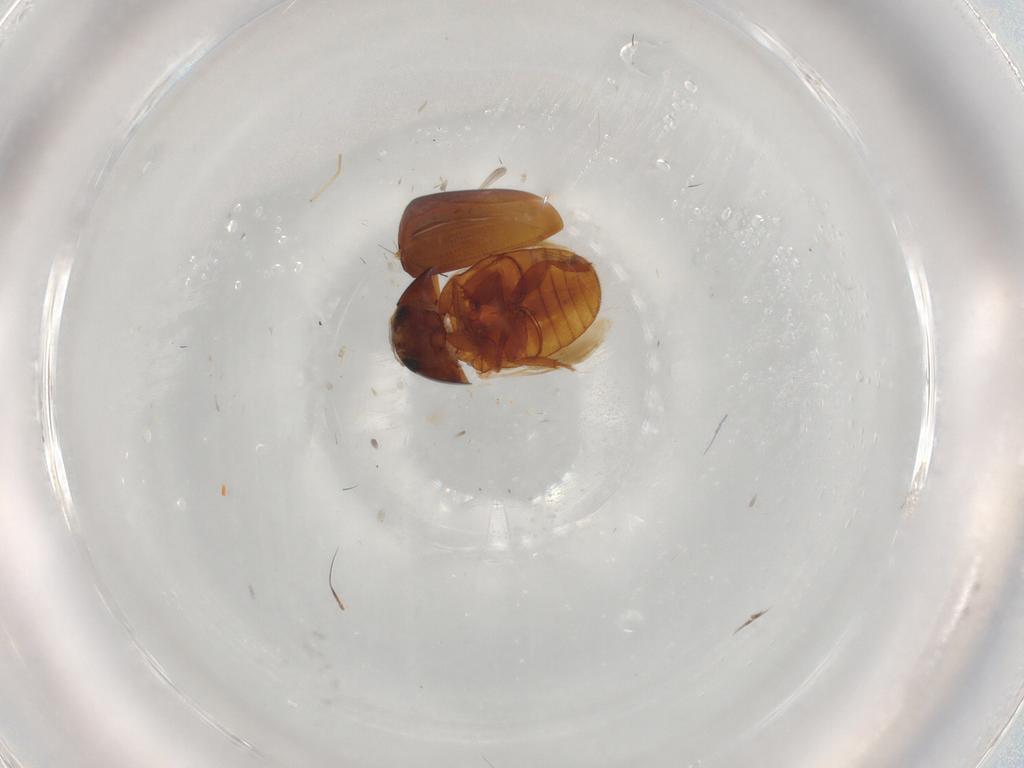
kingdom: Animalia
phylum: Arthropoda
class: Insecta
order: Coleoptera
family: Phalacridae
